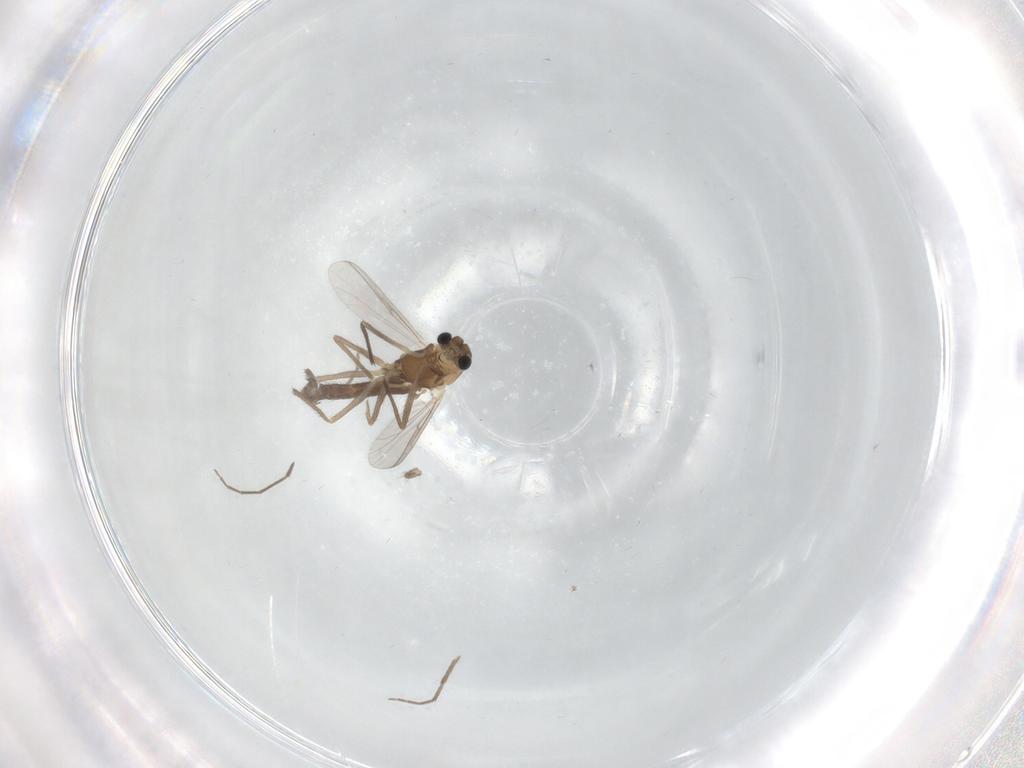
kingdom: Animalia
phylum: Arthropoda
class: Insecta
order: Diptera
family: Chironomidae
